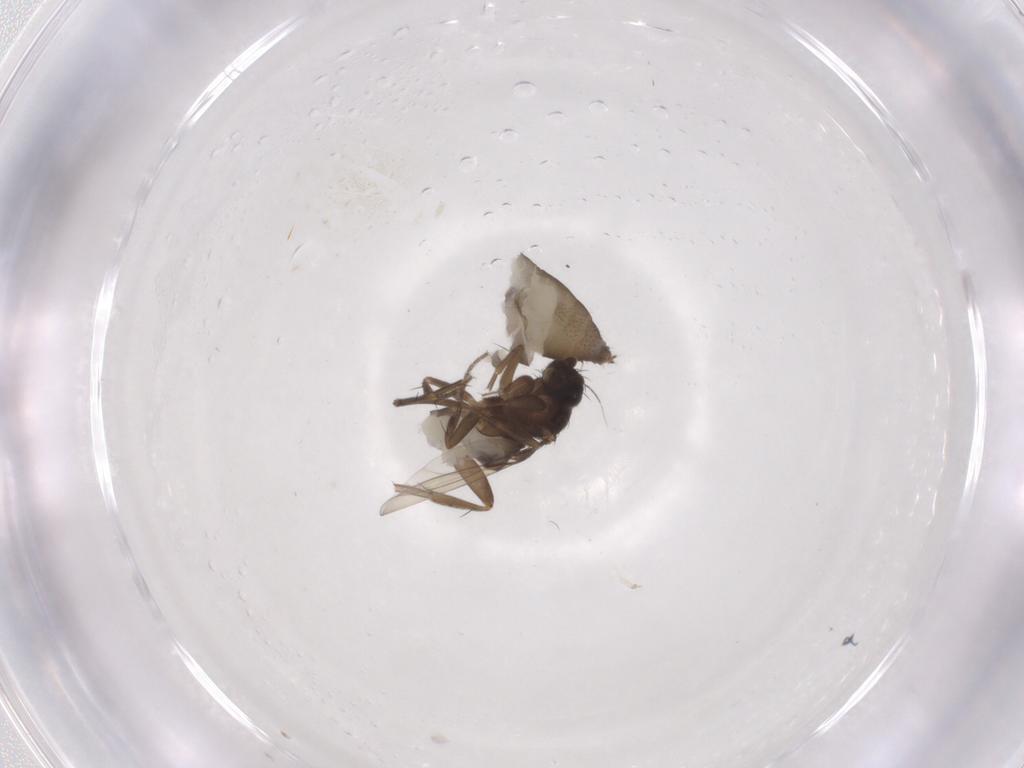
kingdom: Animalia
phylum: Arthropoda
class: Insecta
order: Diptera
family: Phoridae
